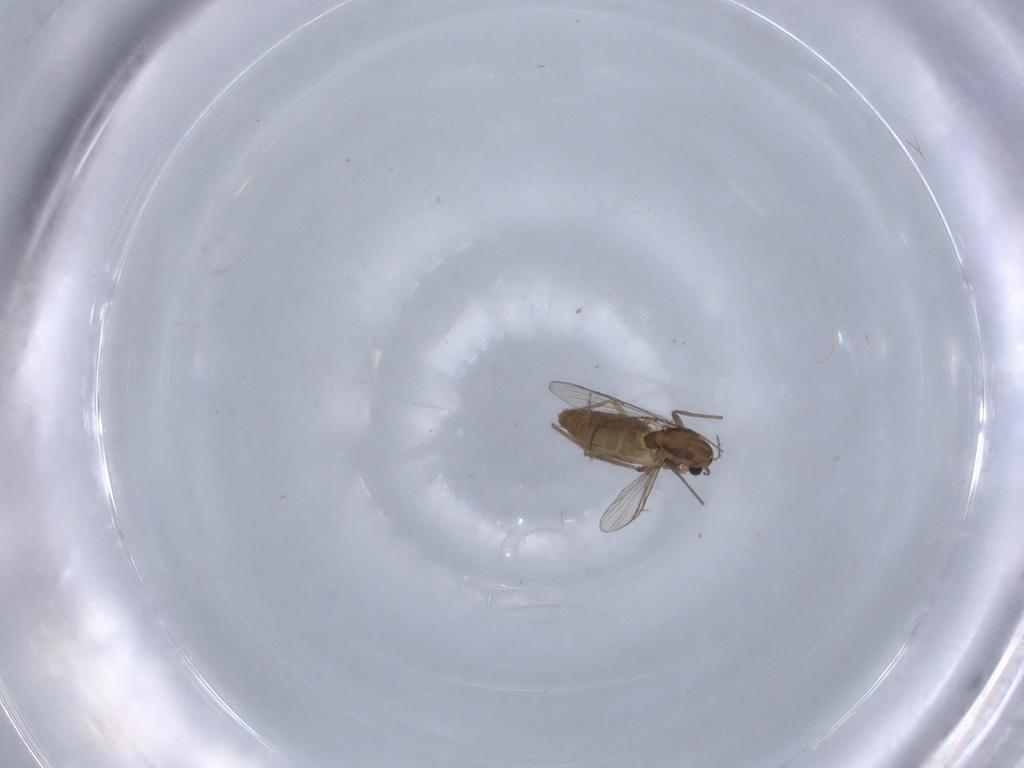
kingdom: Animalia
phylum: Arthropoda
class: Insecta
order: Diptera
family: Chironomidae
